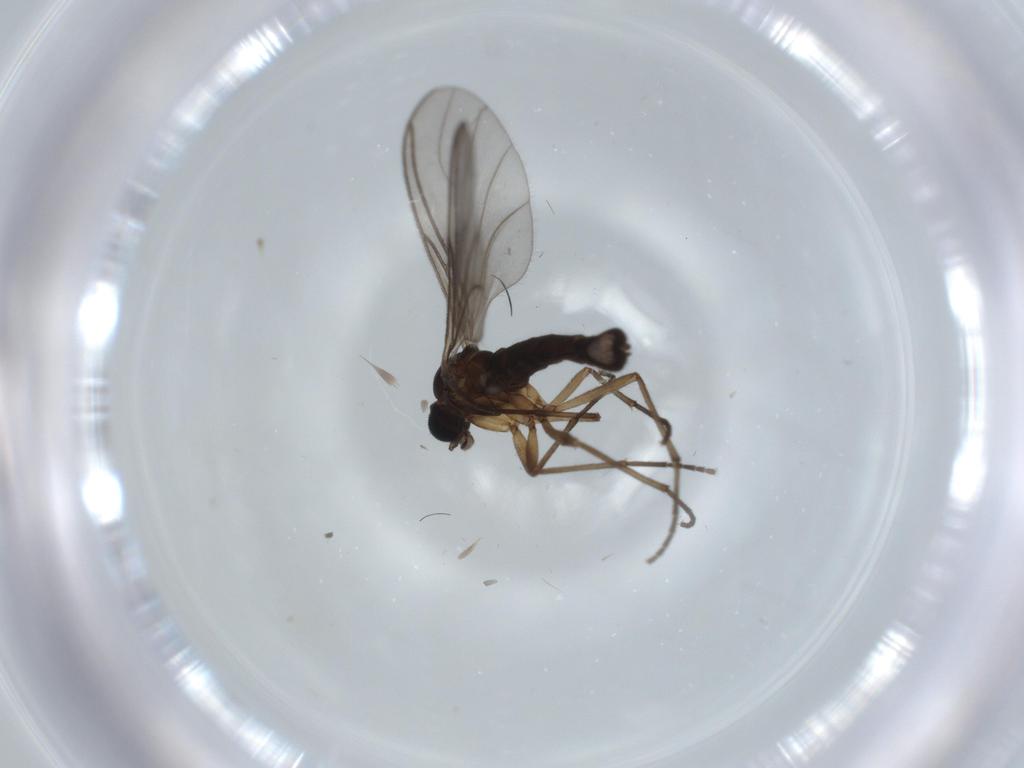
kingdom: Animalia
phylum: Arthropoda
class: Insecta
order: Diptera
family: Sciaridae
